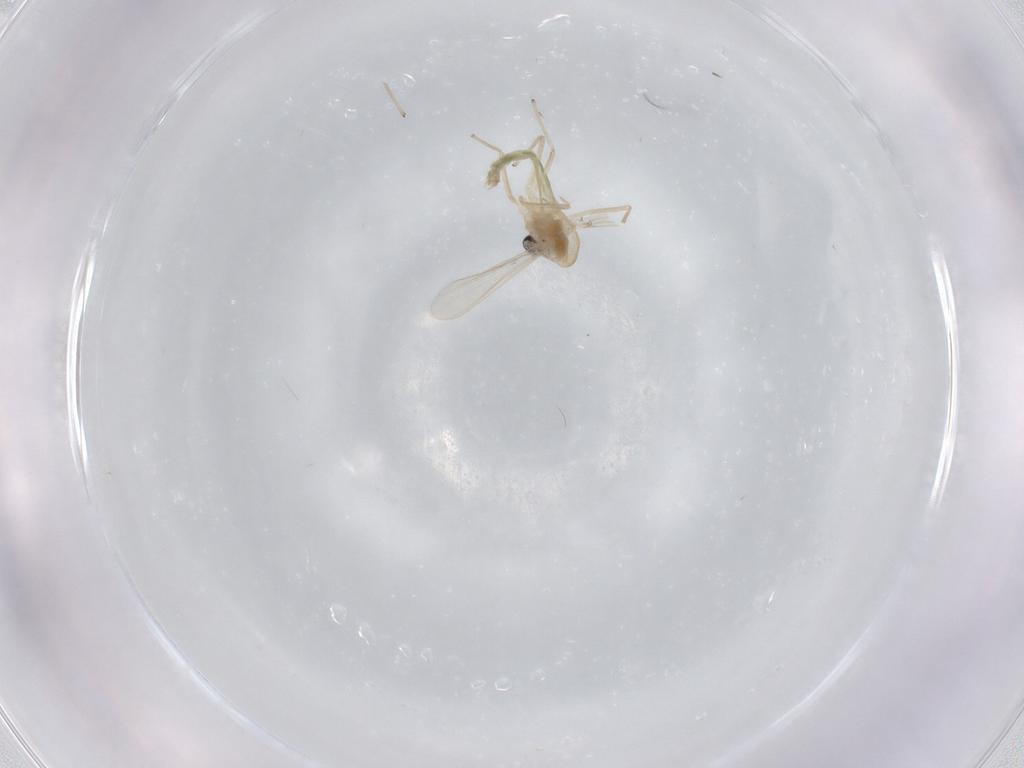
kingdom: Animalia
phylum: Arthropoda
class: Insecta
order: Diptera
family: Chironomidae
